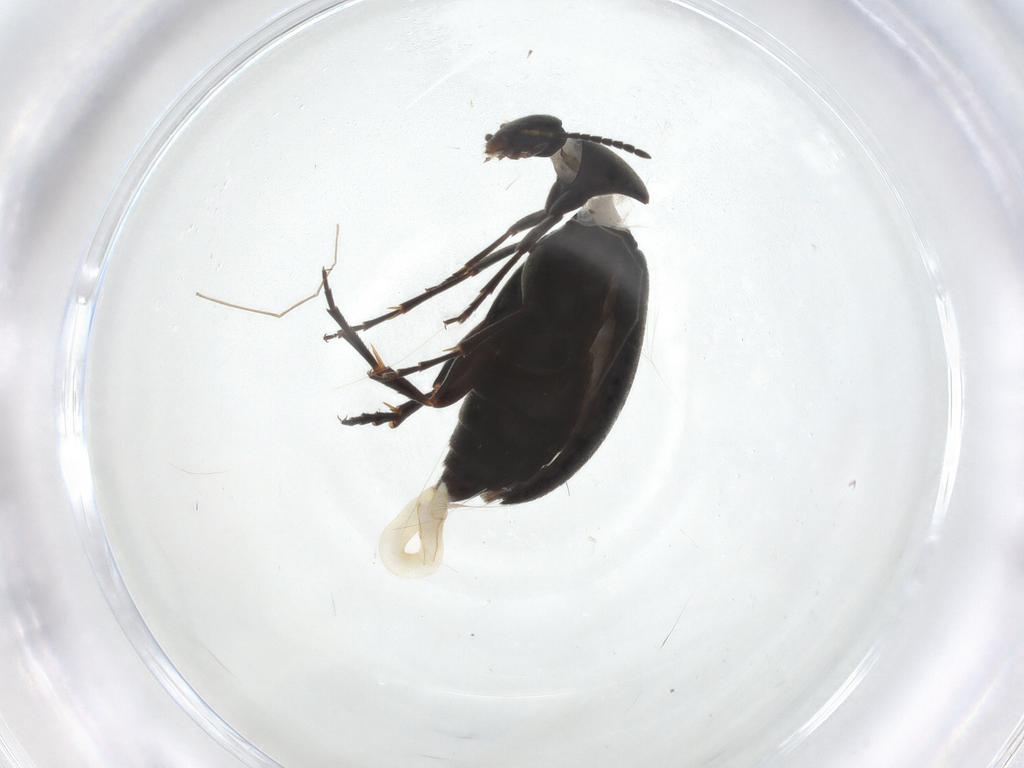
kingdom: Animalia
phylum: Arthropoda
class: Insecta
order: Coleoptera
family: Scraptiidae
